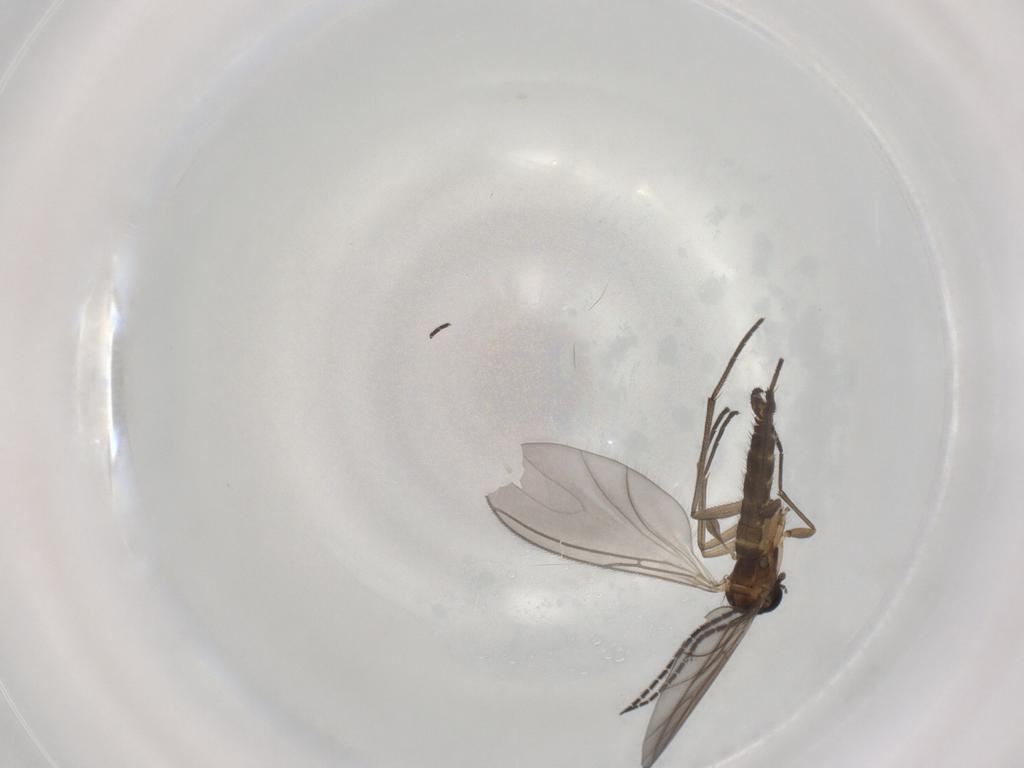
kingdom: Animalia
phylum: Arthropoda
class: Insecta
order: Diptera
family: Sciaridae
